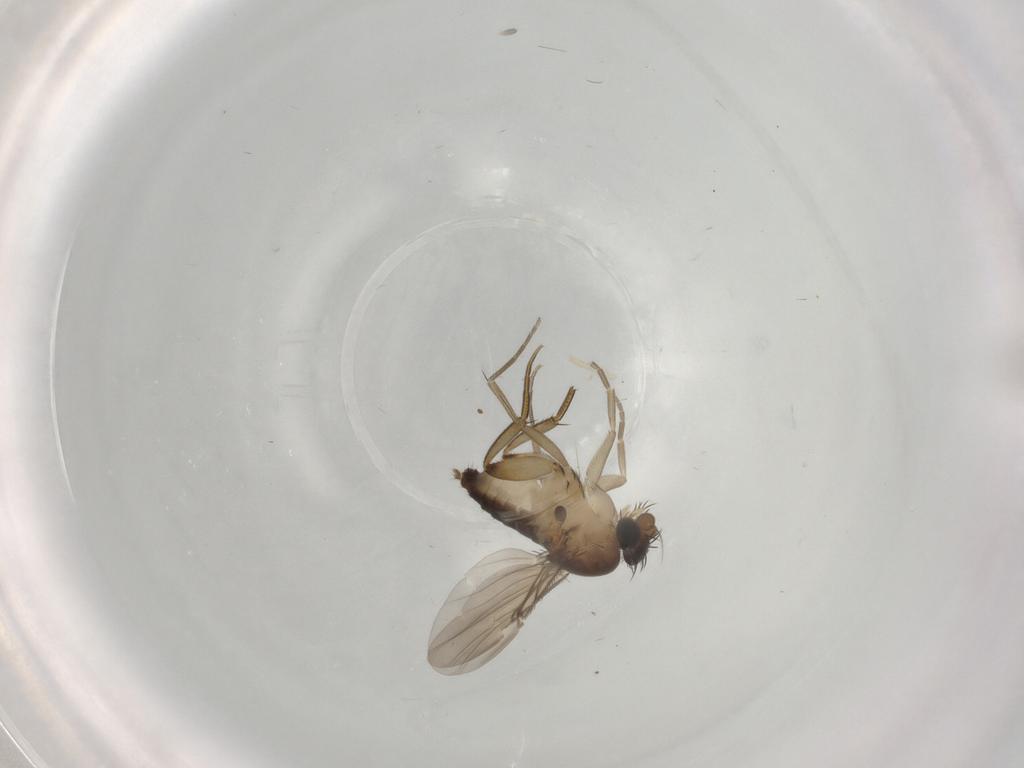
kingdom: Animalia
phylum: Arthropoda
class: Insecta
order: Diptera
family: Phoridae
